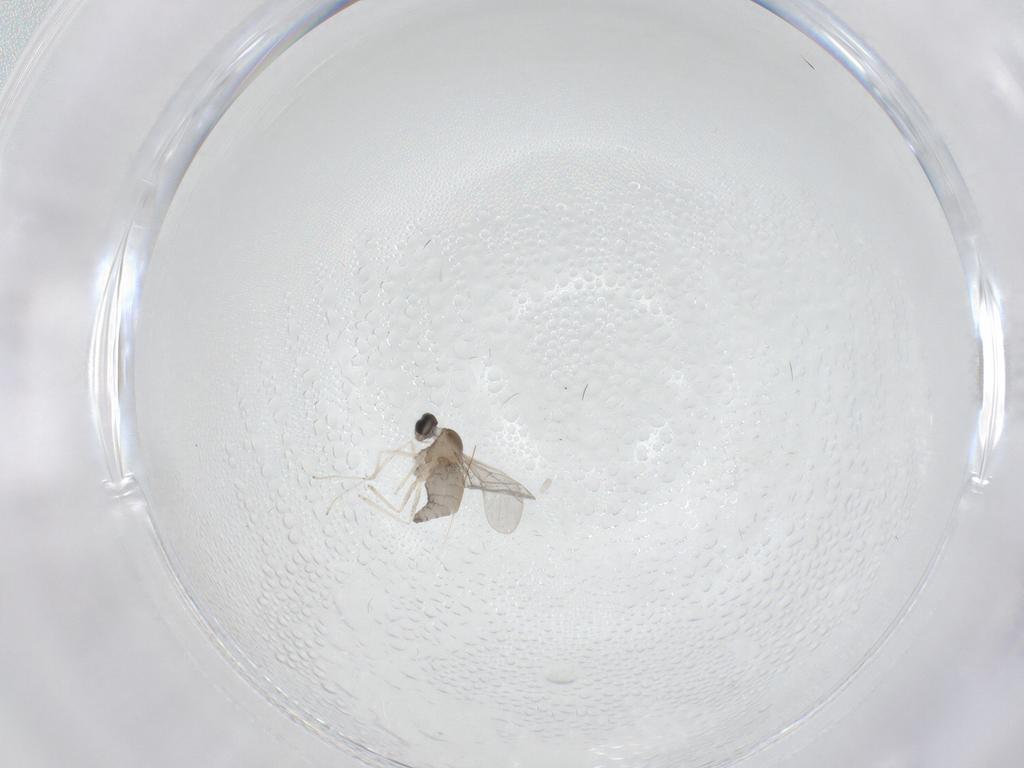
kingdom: Animalia
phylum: Arthropoda
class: Insecta
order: Diptera
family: Cecidomyiidae
